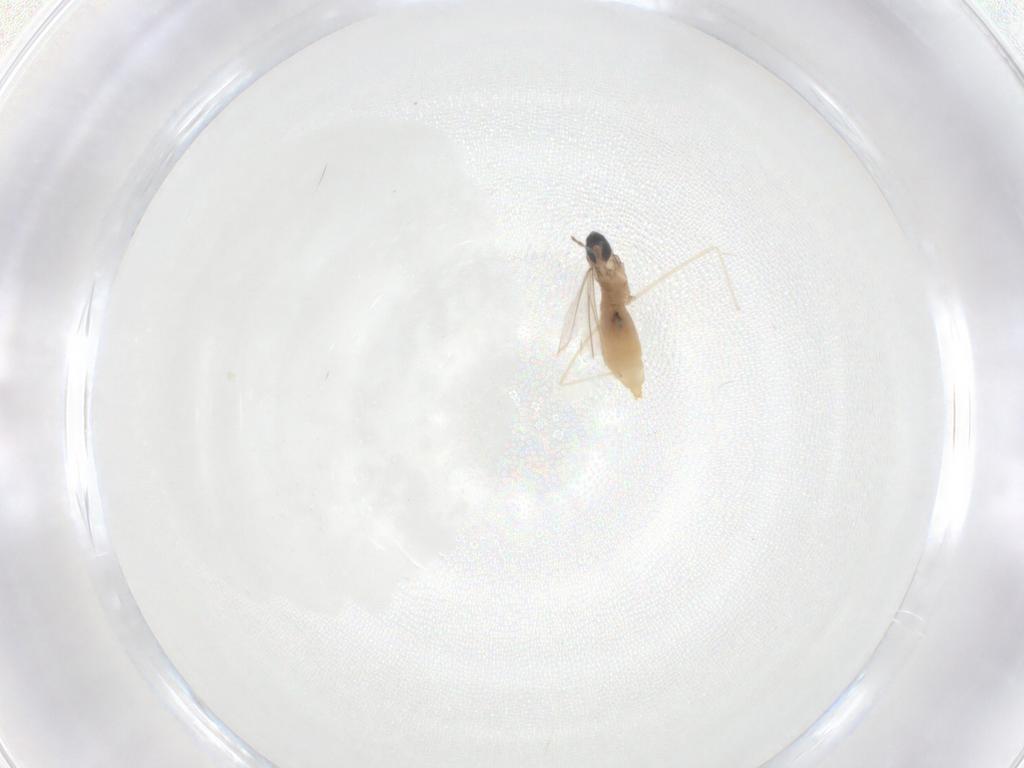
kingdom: Animalia
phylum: Arthropoda
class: Insecta
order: Diptera
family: Cecidomyiidae
